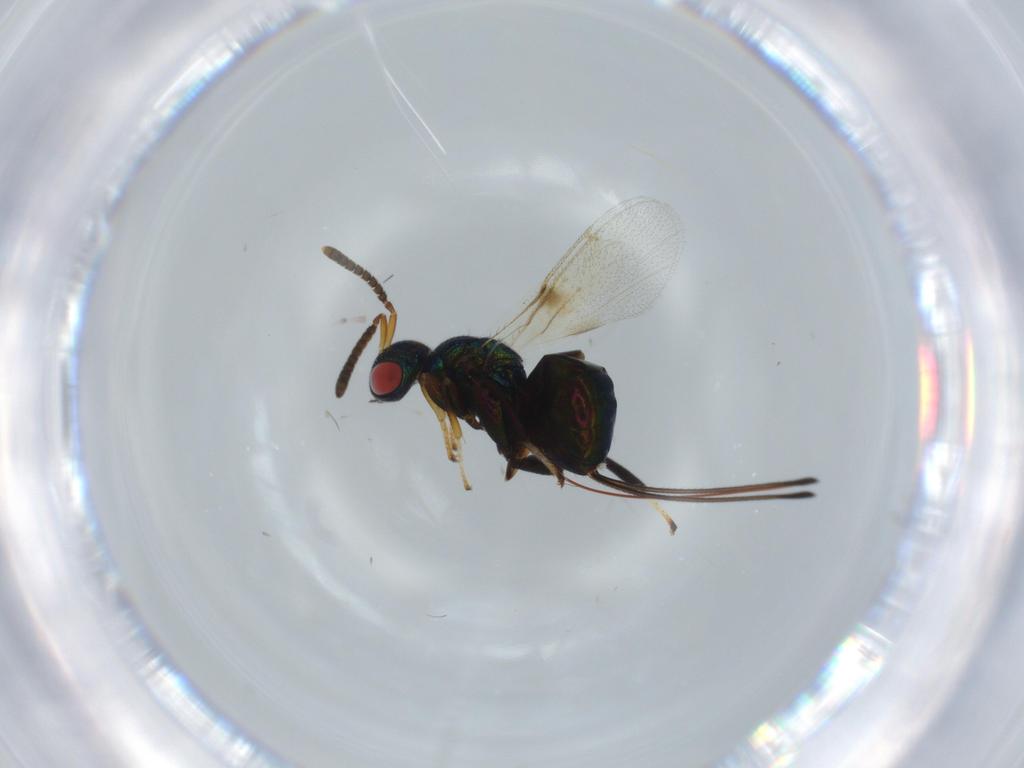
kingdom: Animalia
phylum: Arthropoda
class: Insecta
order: Hymenoptera
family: Torymidae
